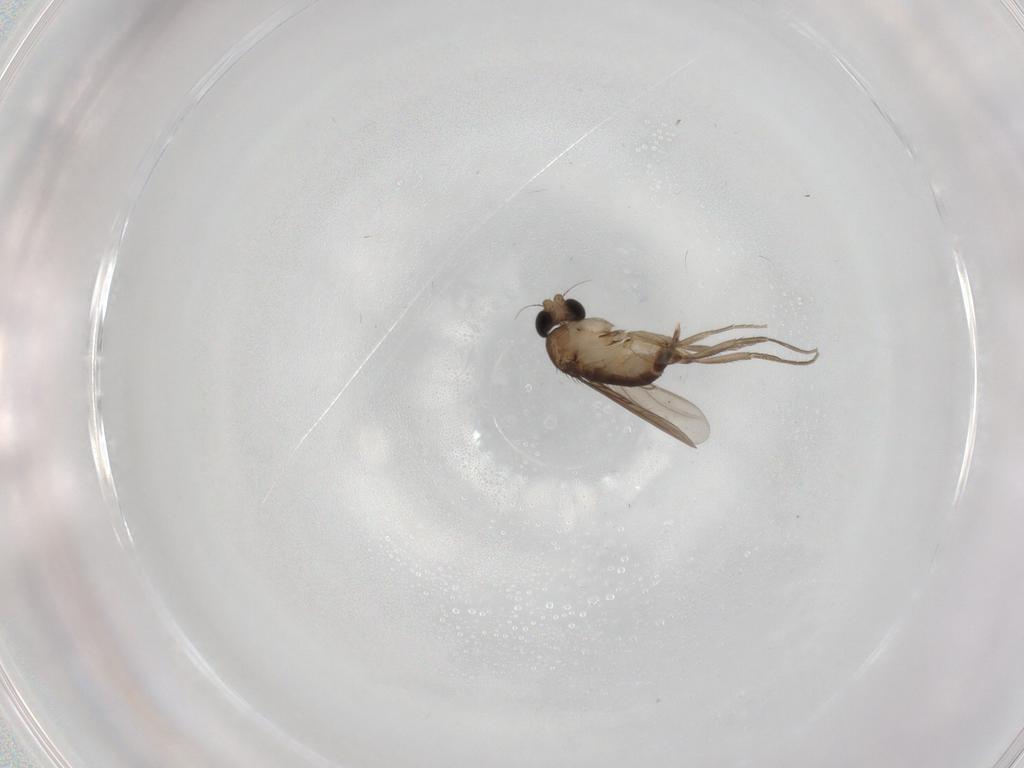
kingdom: Animalia
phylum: Arthropoda
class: Insecta
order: Diptera
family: Phoridae
